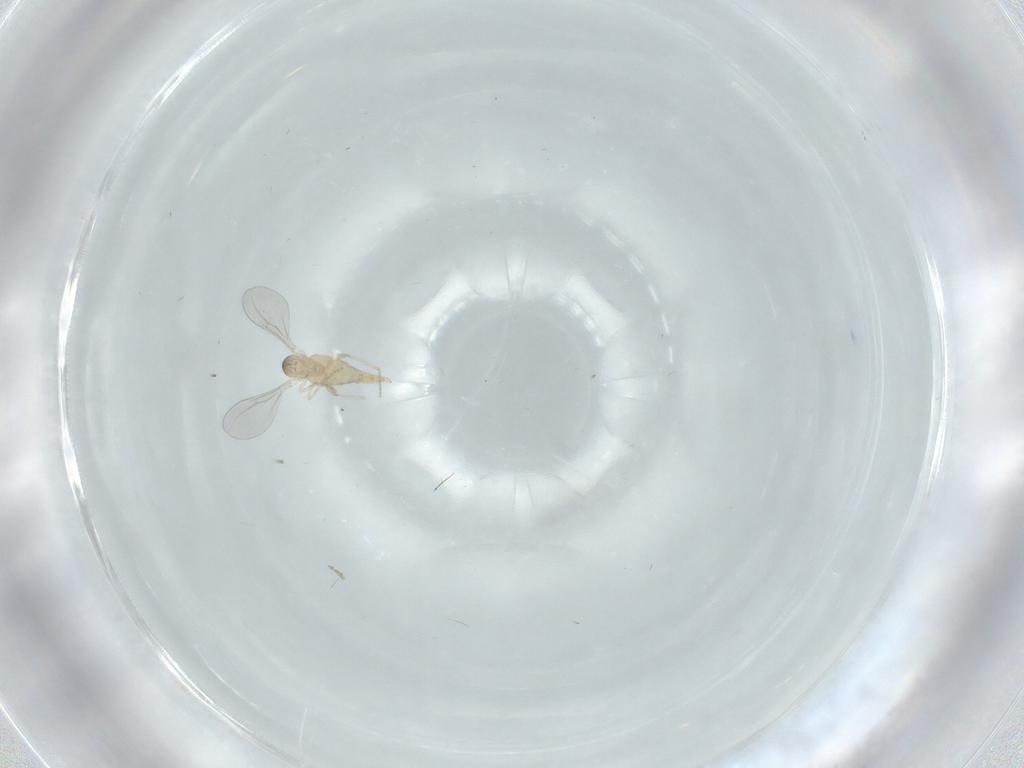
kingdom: Animalia
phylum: Arthropoda
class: Insecta
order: Diptera
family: Cecidomyiidae
